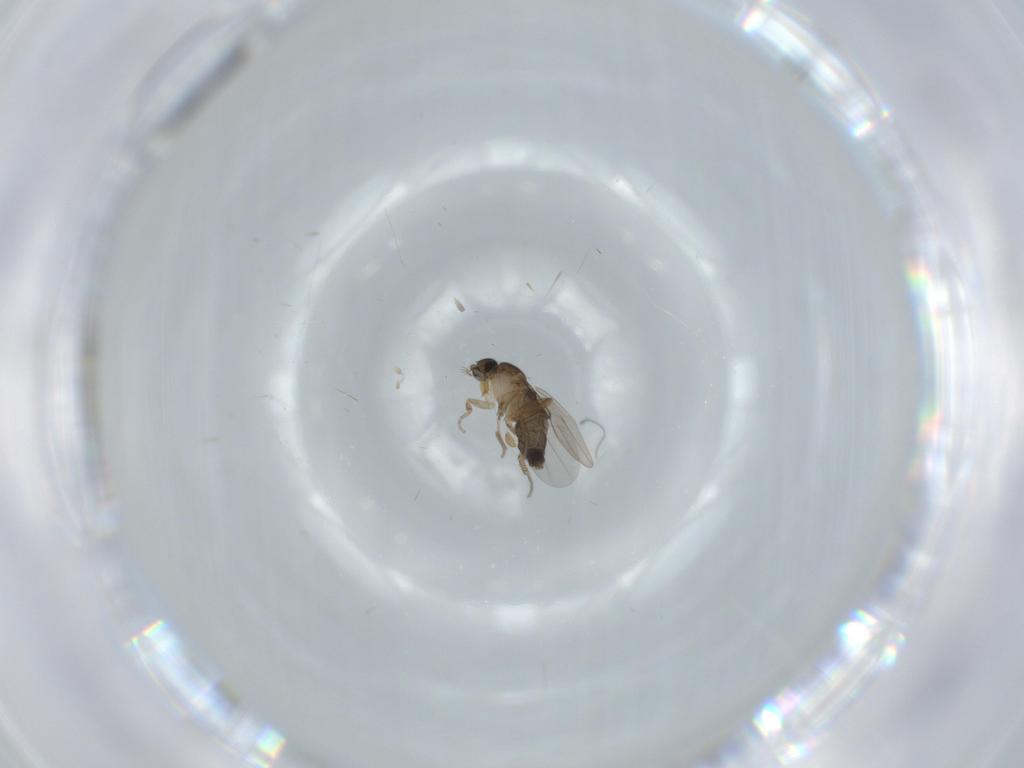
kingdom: Animalia
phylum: Arthropoda
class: Insecta
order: Diptera
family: Phoridae
